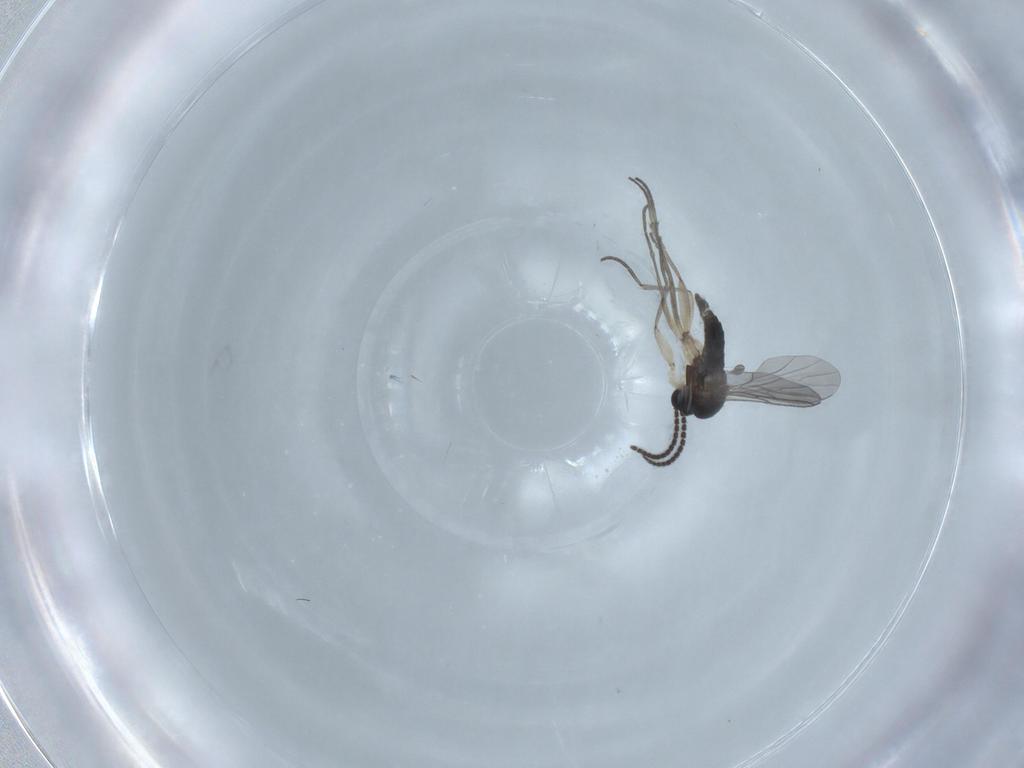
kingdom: Animalia
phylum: Arthropoda
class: Insecta
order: Diptera
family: Sciaridae
